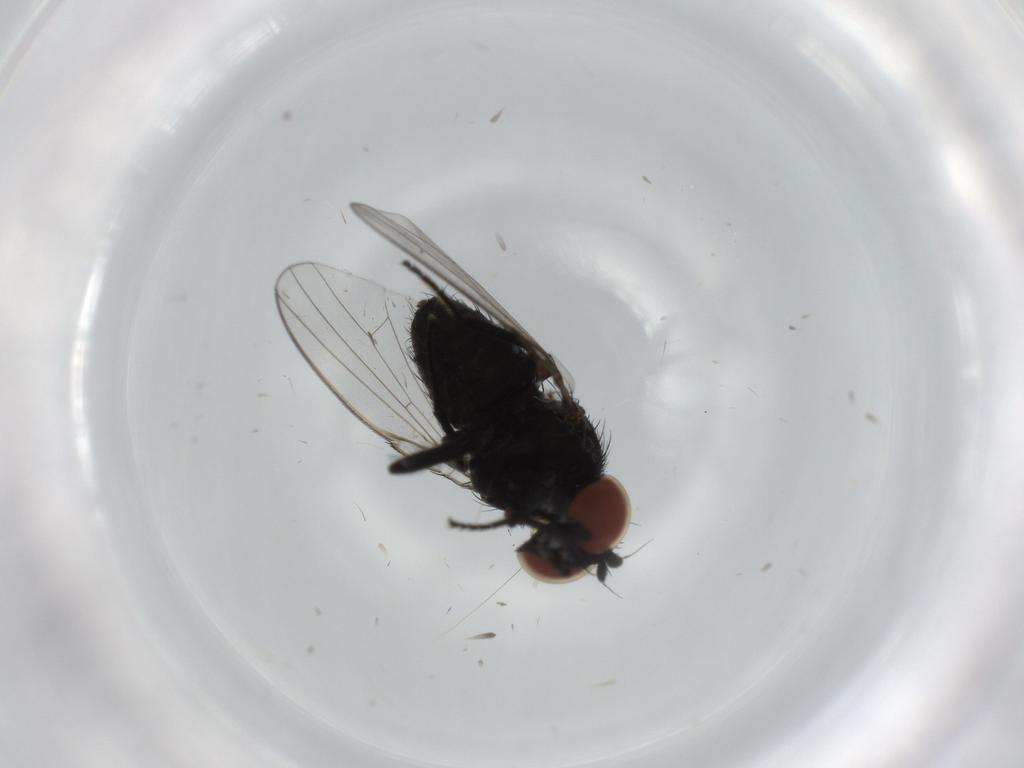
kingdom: Animalia
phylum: Arthropoda
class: Insecta
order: Diptera
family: Milichiidae
